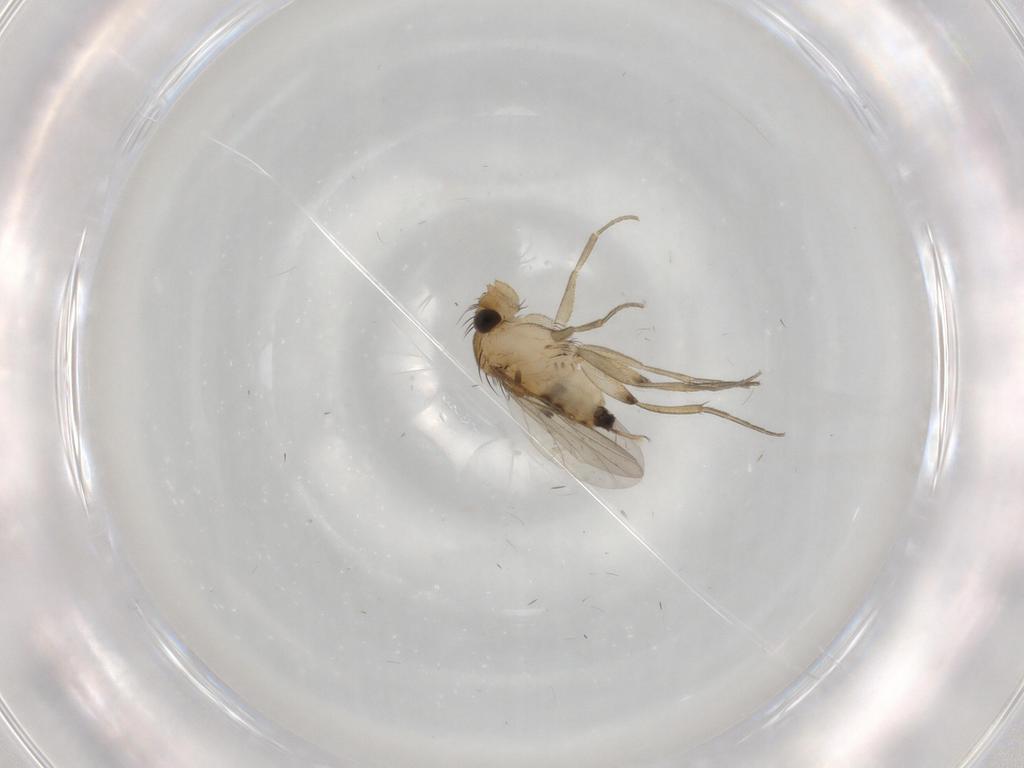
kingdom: Animalia
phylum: Arthropoda
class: Insecta
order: Diptera
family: Phoridae
